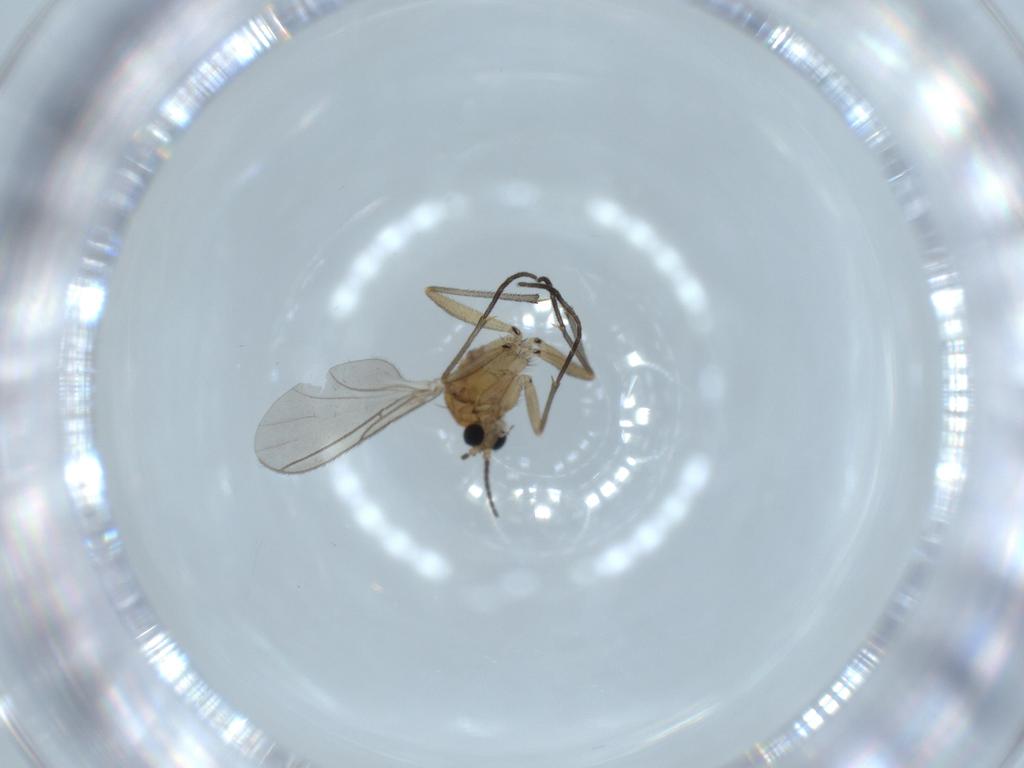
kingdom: Animalia
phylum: Arthropoda
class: Insecta
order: Diptera
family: Sciaridae
